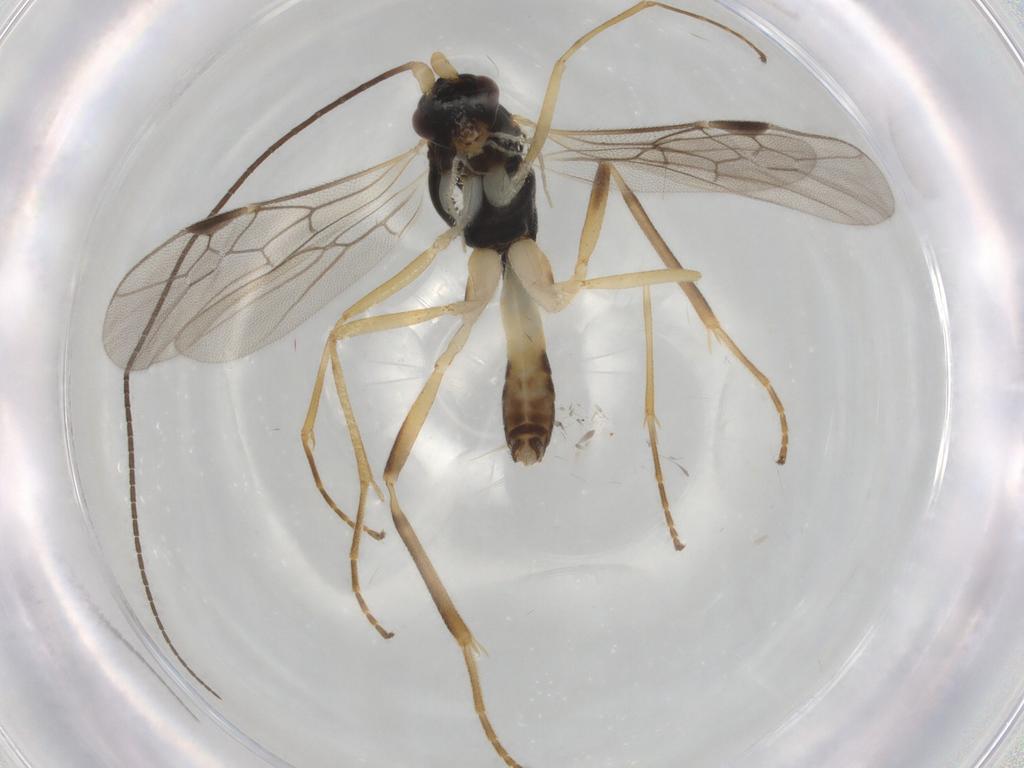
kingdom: Animalia
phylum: Arthropoda
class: Insecta
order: Hymenoptera
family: Braconidae
